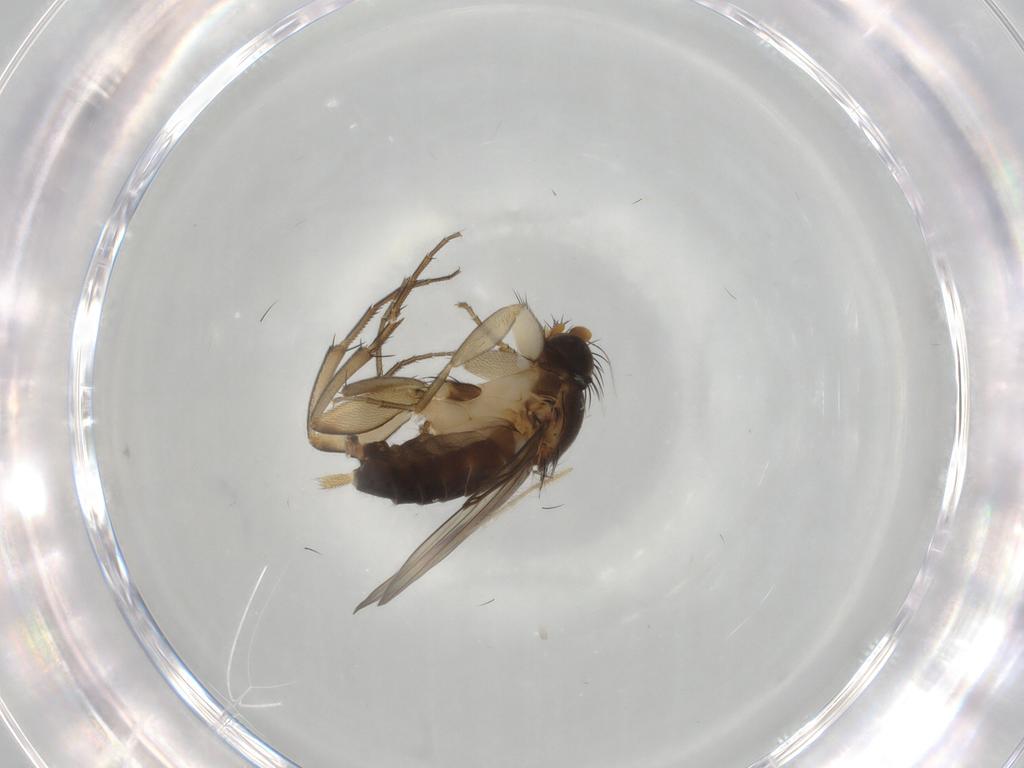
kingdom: Animalia
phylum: Arthropoda
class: Insecta
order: Diptera
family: Phoridae
